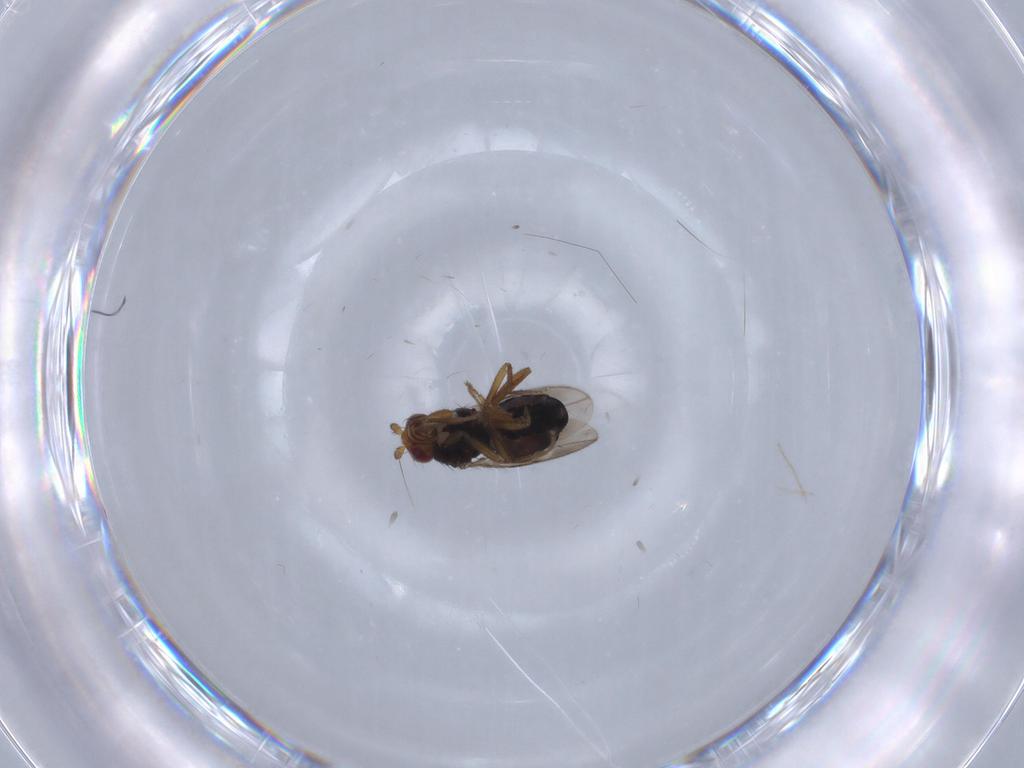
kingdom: Animalia
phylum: Arthropoda
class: Insecta
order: Diptera
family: Sphaeroceridae
